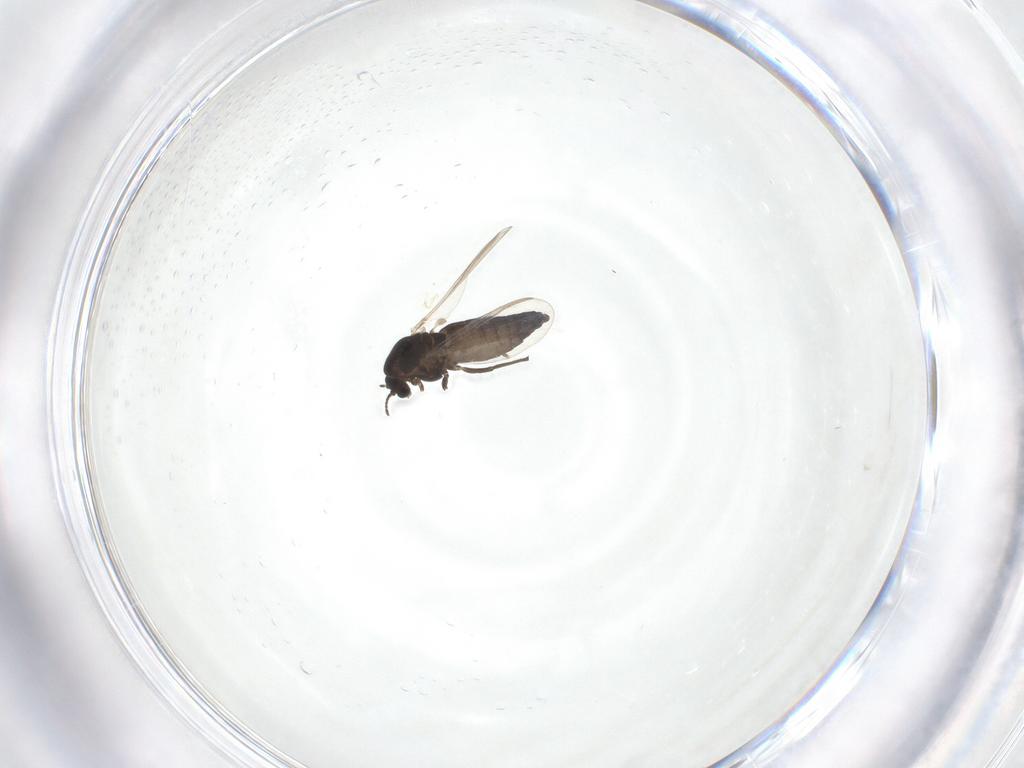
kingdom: Animalia
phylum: Arthropoda
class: Insecta
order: Diptera
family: Chironomidae
